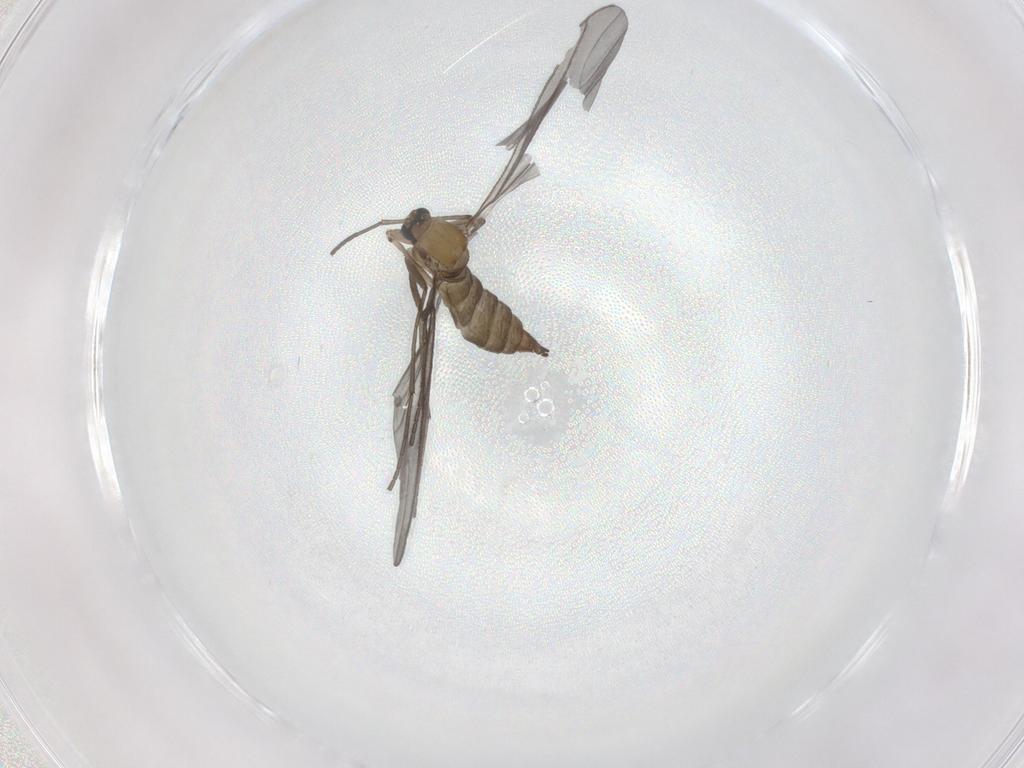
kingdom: Animalia
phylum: Arthropoda
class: Insecta
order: Diptera
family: Sciaridae
